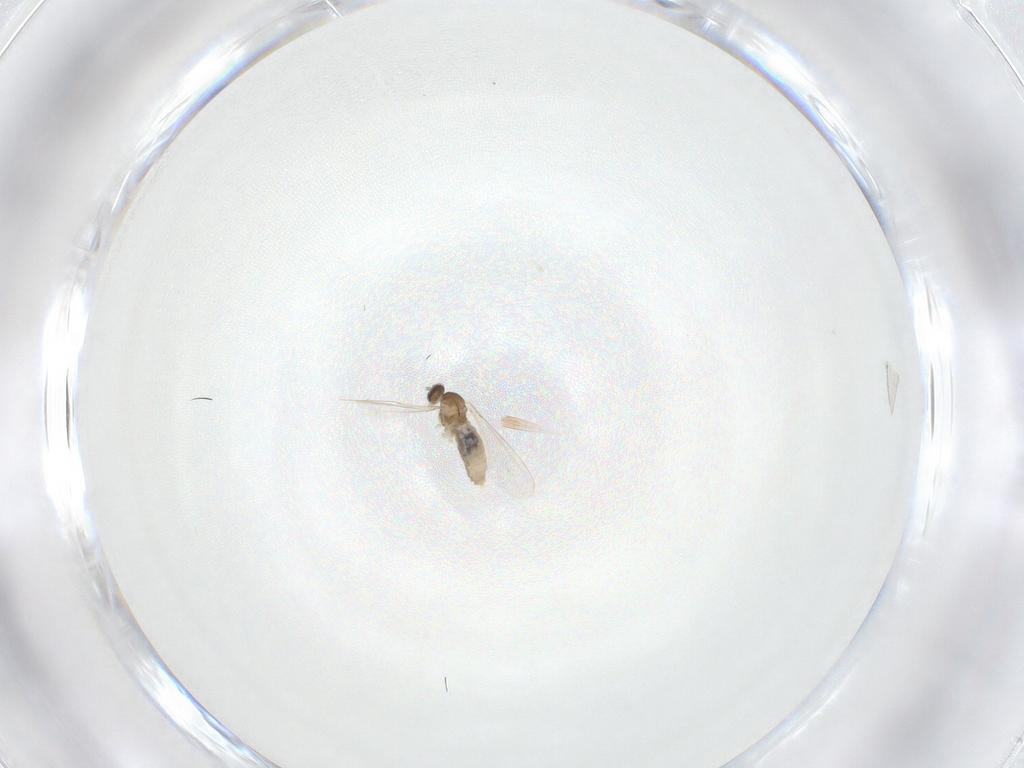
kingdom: Animalia
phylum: Arthropoda
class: Insecta
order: Diptera
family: Cecidomyiidae
